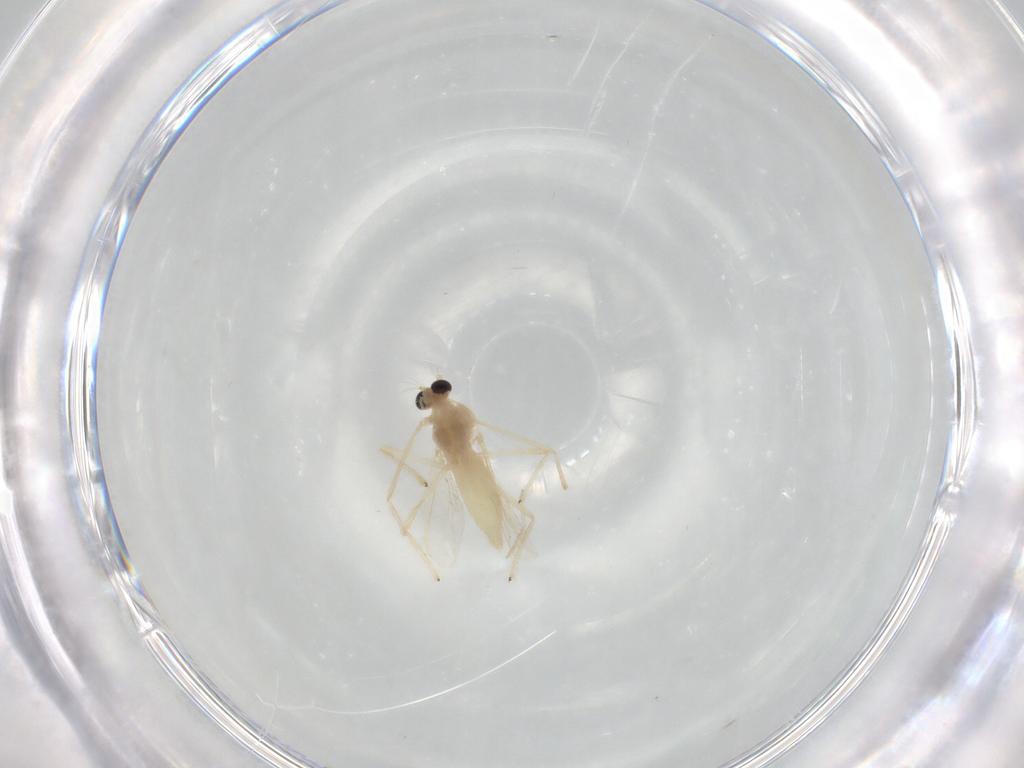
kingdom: Animalia
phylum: Arthropoda
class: Insecta
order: Diptera
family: Chironomidae
